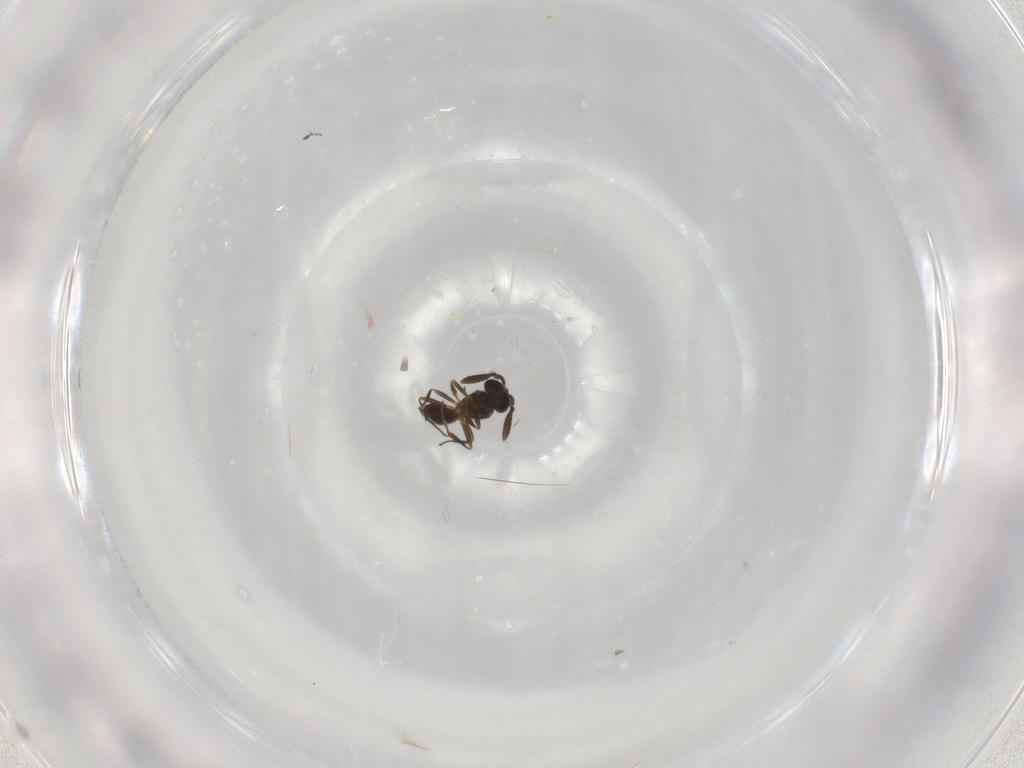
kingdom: Animalia
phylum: Arthropoda
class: Insecta
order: Hymenoptera
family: Scelionidae
